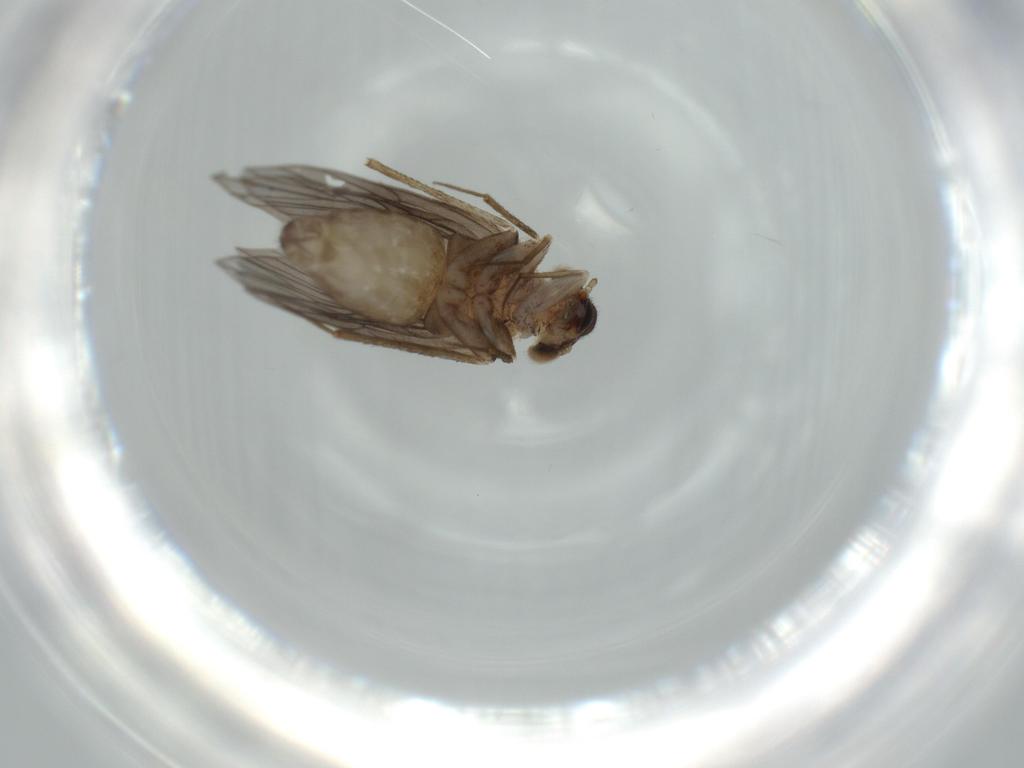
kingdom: Animalia
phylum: Arthropoda
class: Insecta
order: Psocodea
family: Lepidopsocidae
